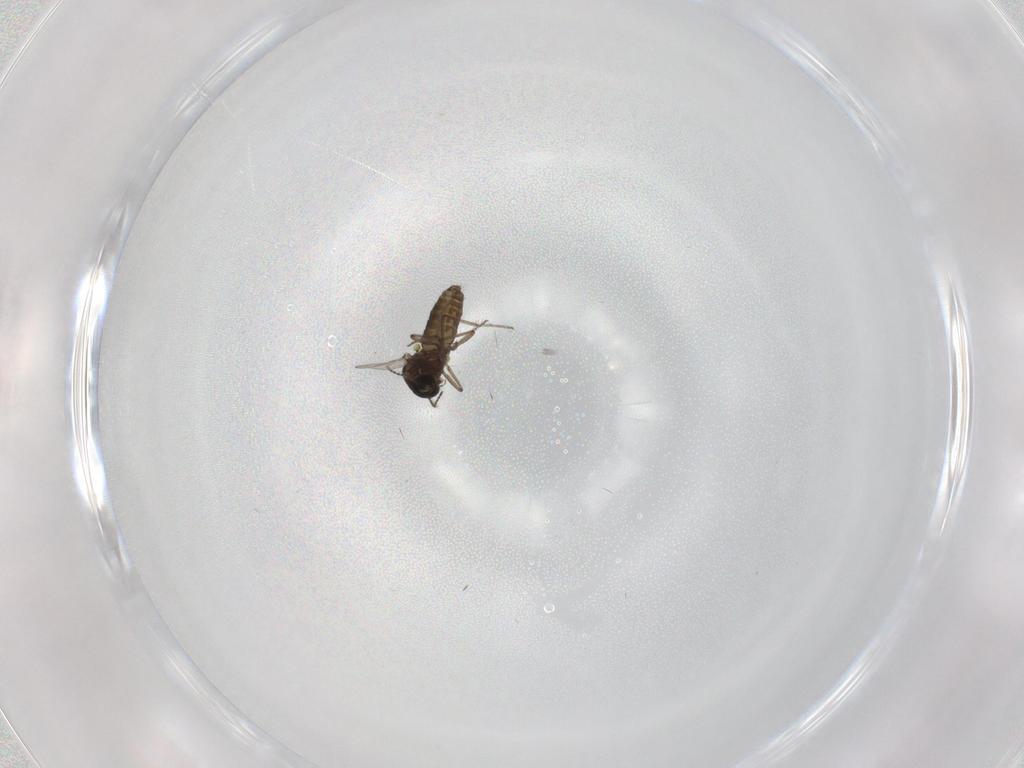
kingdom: Animalia
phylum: Arthropoda
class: Insecta
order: Diptera
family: Ceratopogonidae
